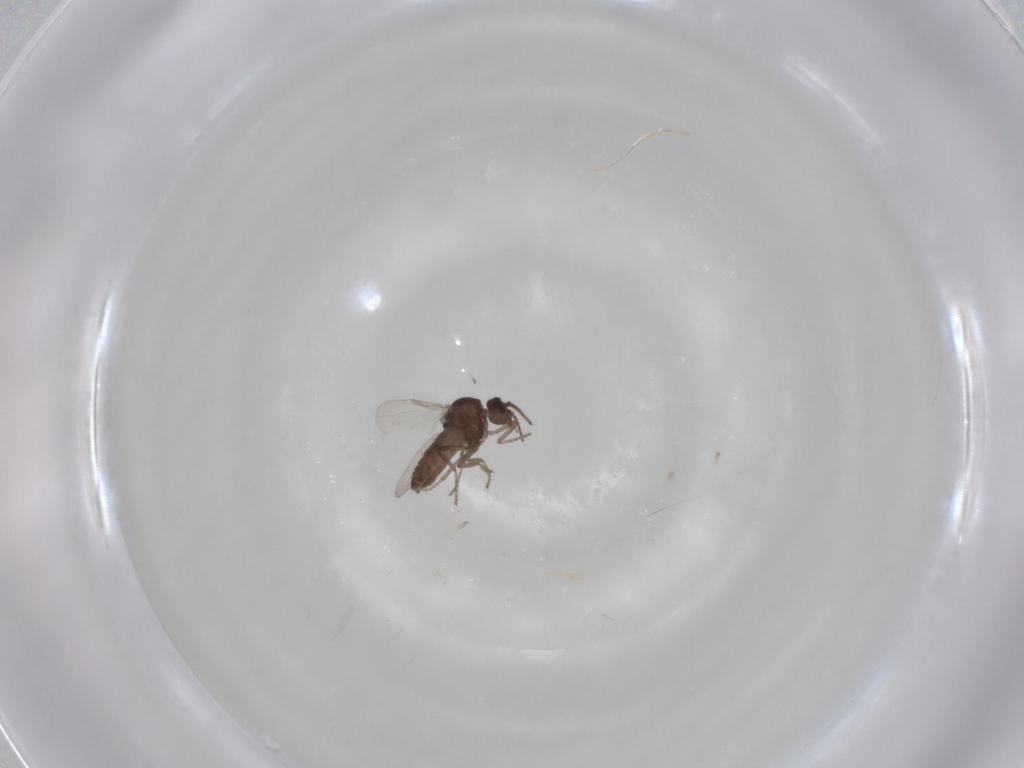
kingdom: Animalia
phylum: Arthropoda
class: Insecta
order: Diptera
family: Ceratopogonidae
